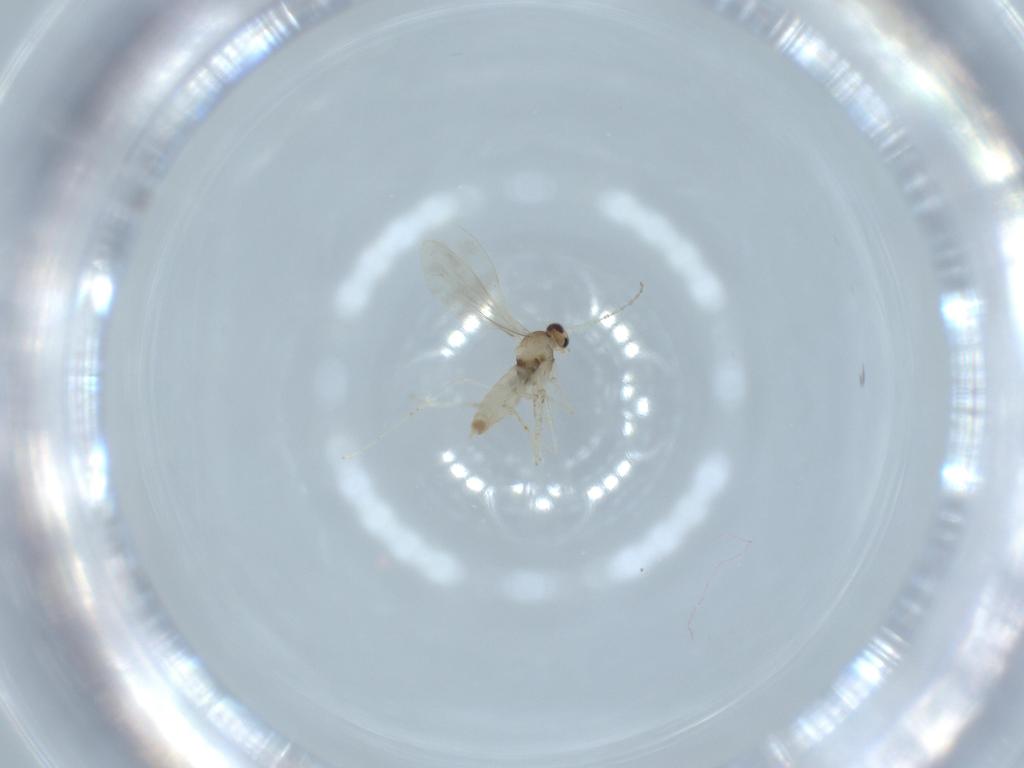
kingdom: Animalia
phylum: Arthropoda
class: Insecta
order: Diptera
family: Cecidomyiidae
